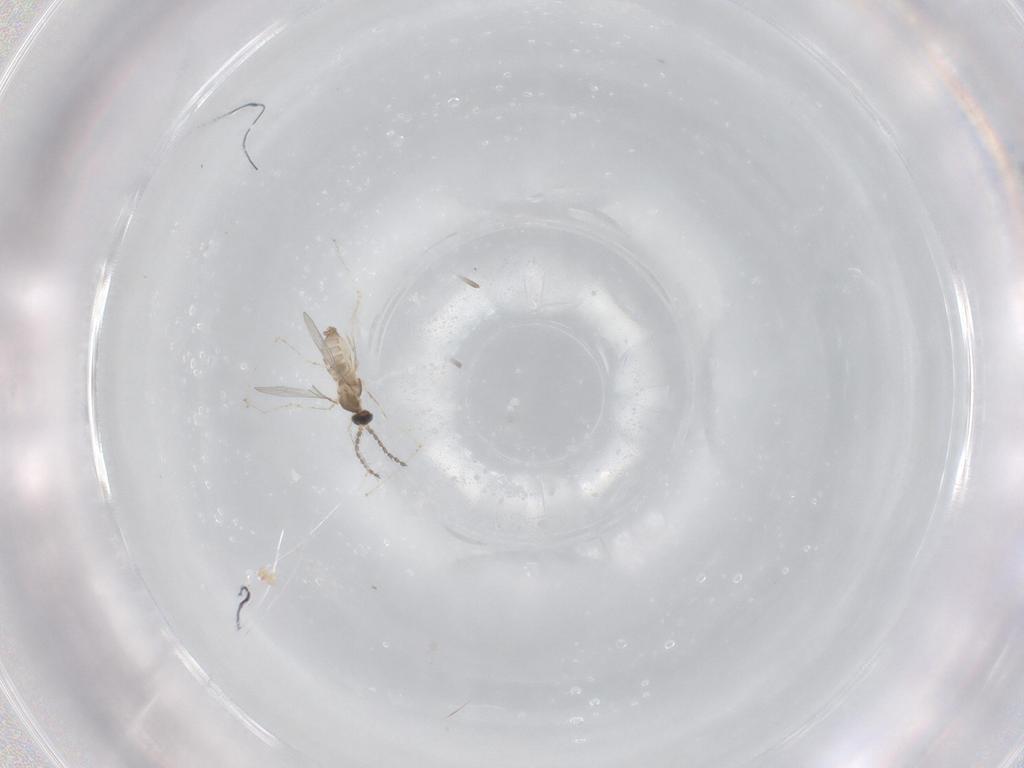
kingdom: Animalia
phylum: Arthropoda
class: Insecta
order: Diptera
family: Cecidomyiidae
